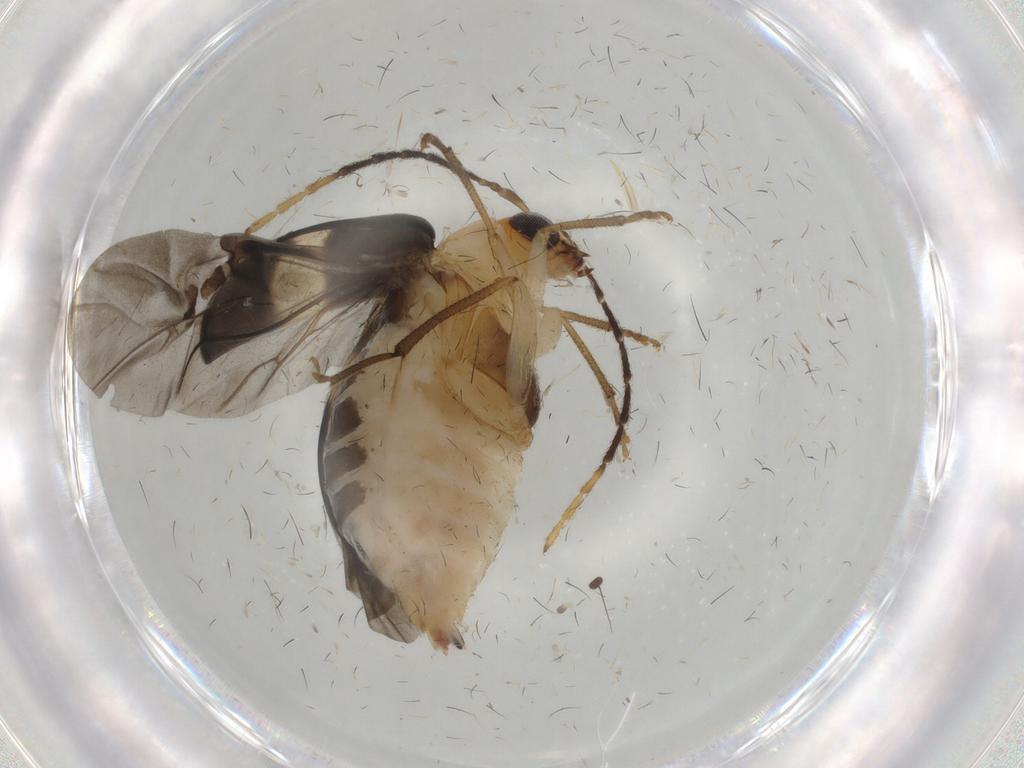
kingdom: Animalia
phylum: Arthropoda
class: Insecta
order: Coleoptera
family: Chrysomelidae
